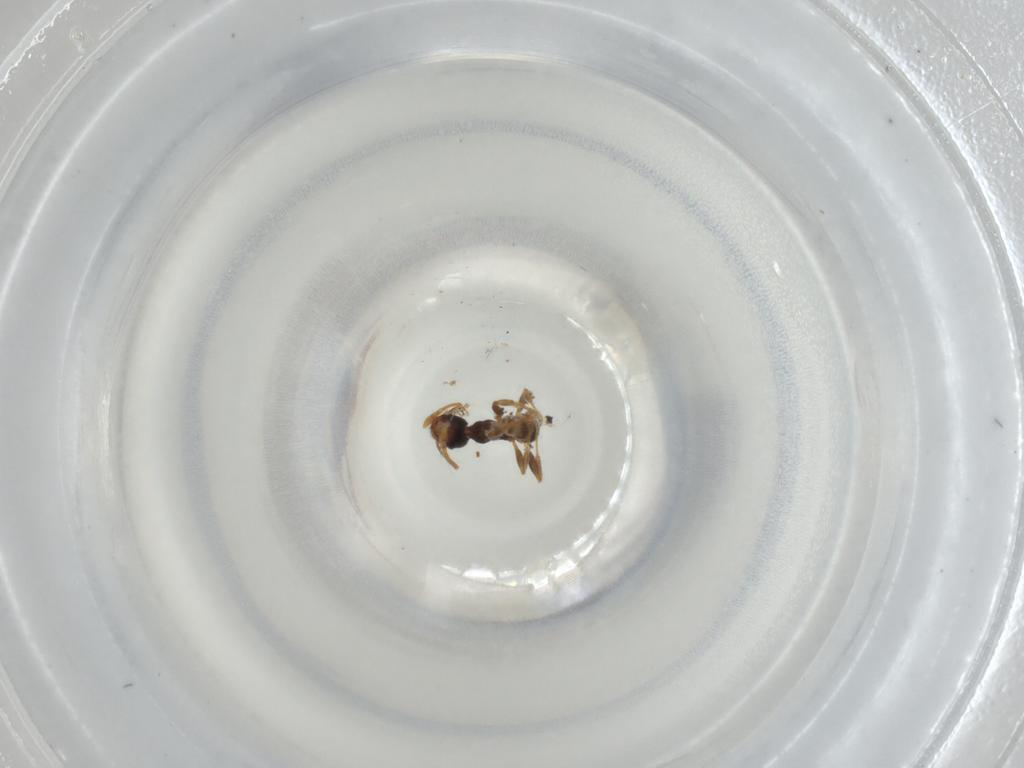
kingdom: Animalia
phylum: Arthropoda
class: Insecta
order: Hymenoptera
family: Formicidae
